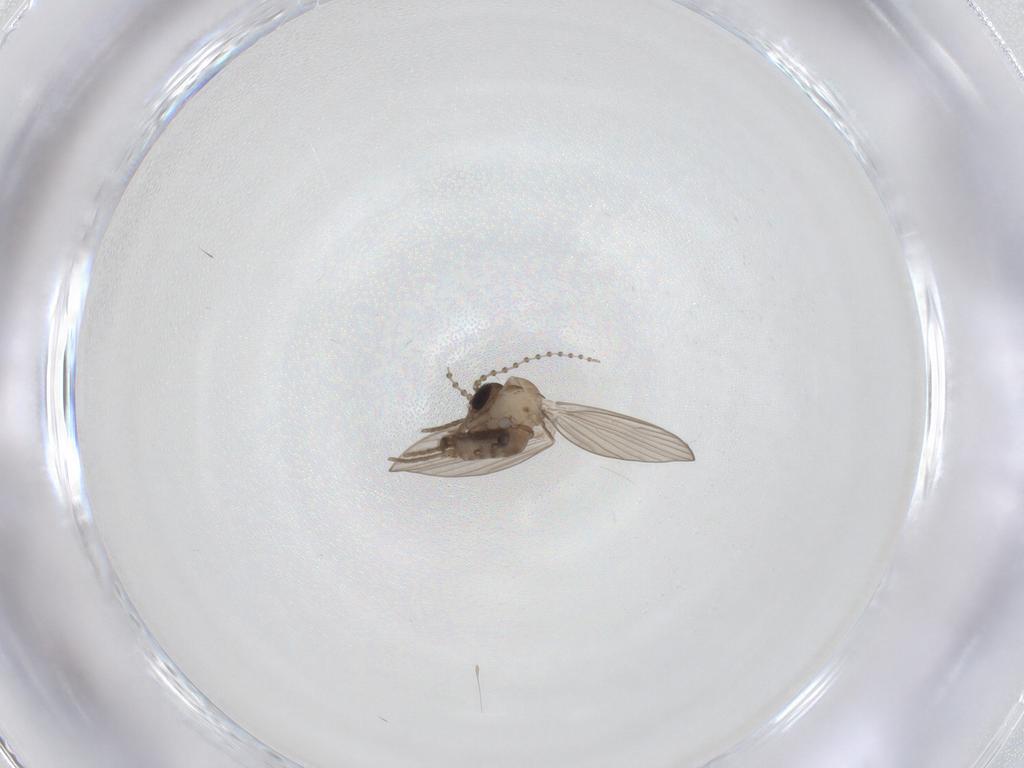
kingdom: Animalia
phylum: Arthropoda
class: Insecta
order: Diptera
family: Psychodidae
